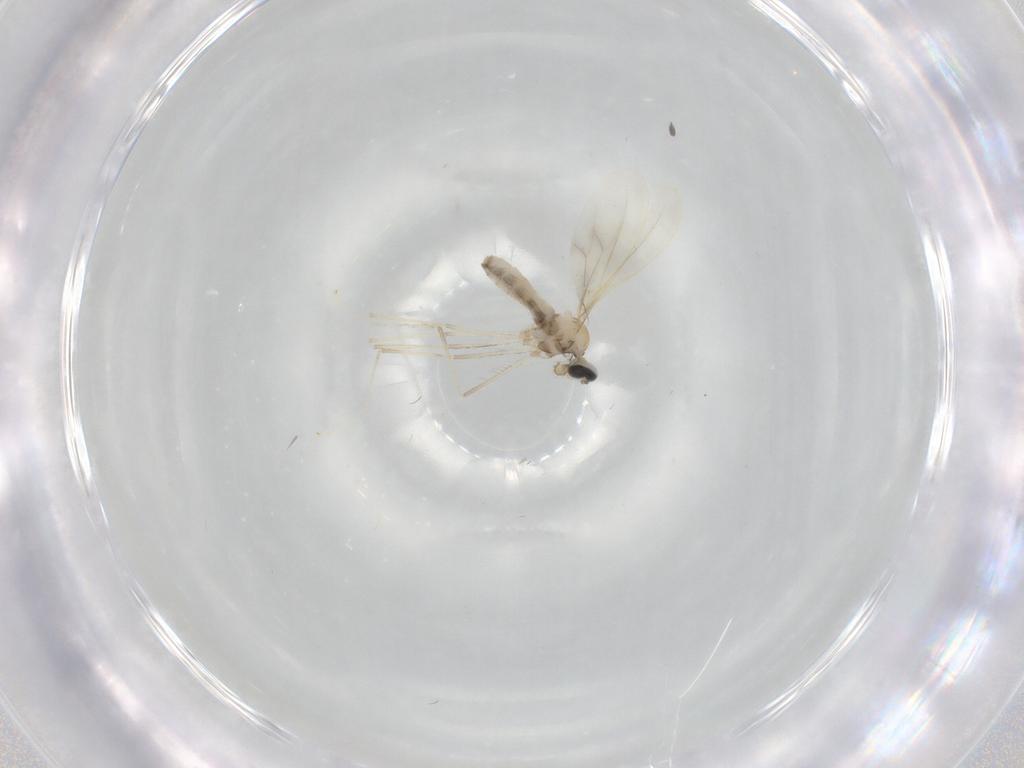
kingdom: Animalia
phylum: Arthropoda
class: Insecta
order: Diptera
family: Cecidomyiidae
